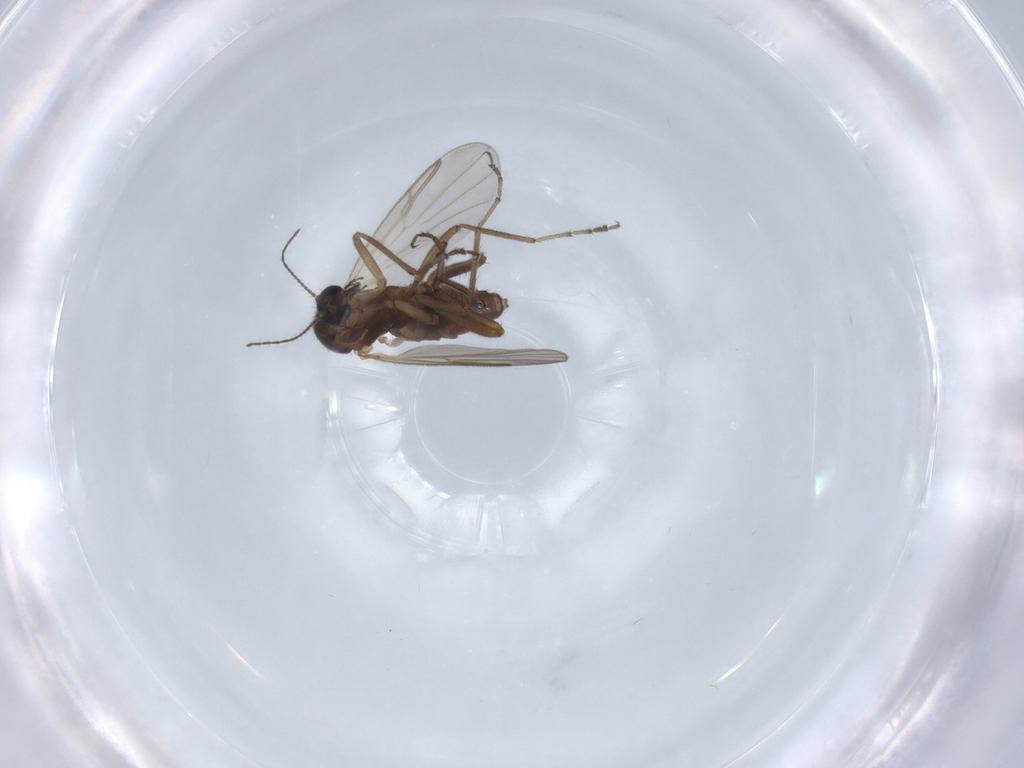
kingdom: Animalia
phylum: Arthropoda
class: Insecta
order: Diptera
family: Ceratopogonidae
